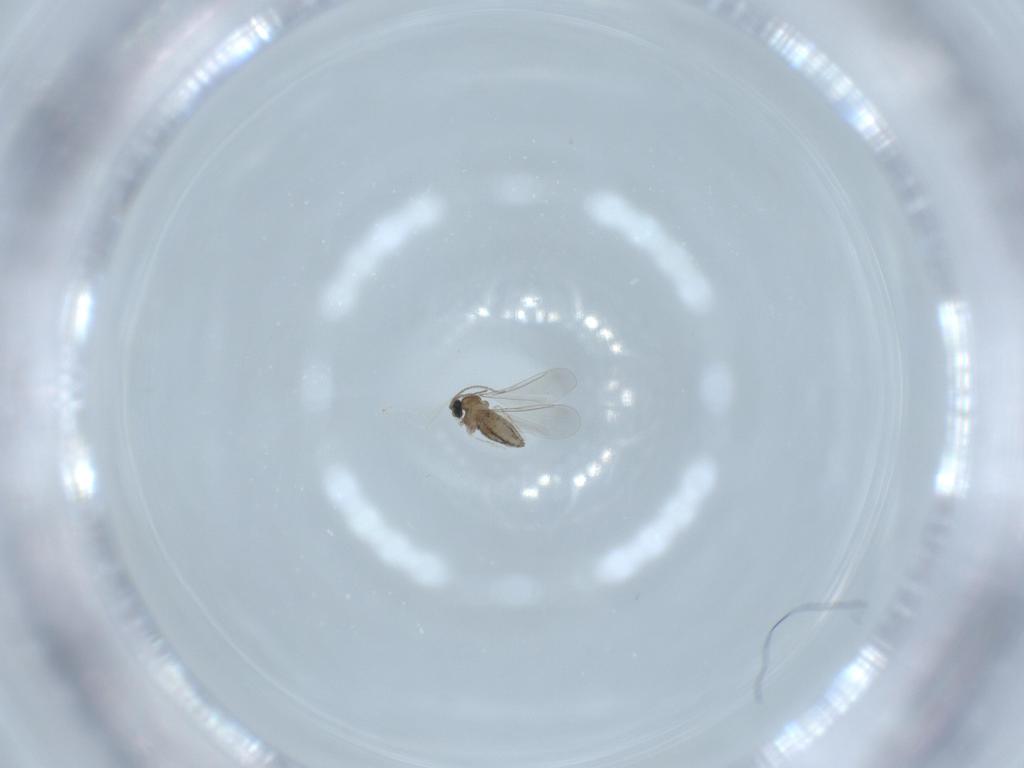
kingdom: Animalia
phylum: Arthropoda
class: Insecta
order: Diptera
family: Cecidomyiidae
